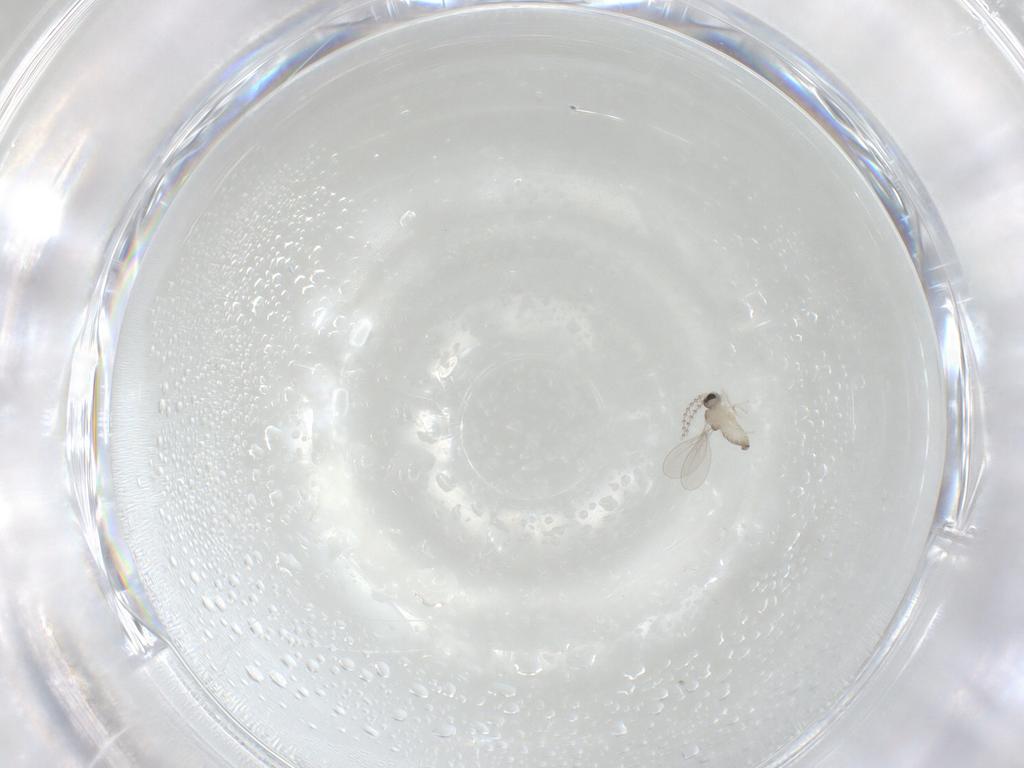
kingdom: Animalia
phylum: Arthropoda
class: Insecta
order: Diptera
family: Cecidomyiidae
